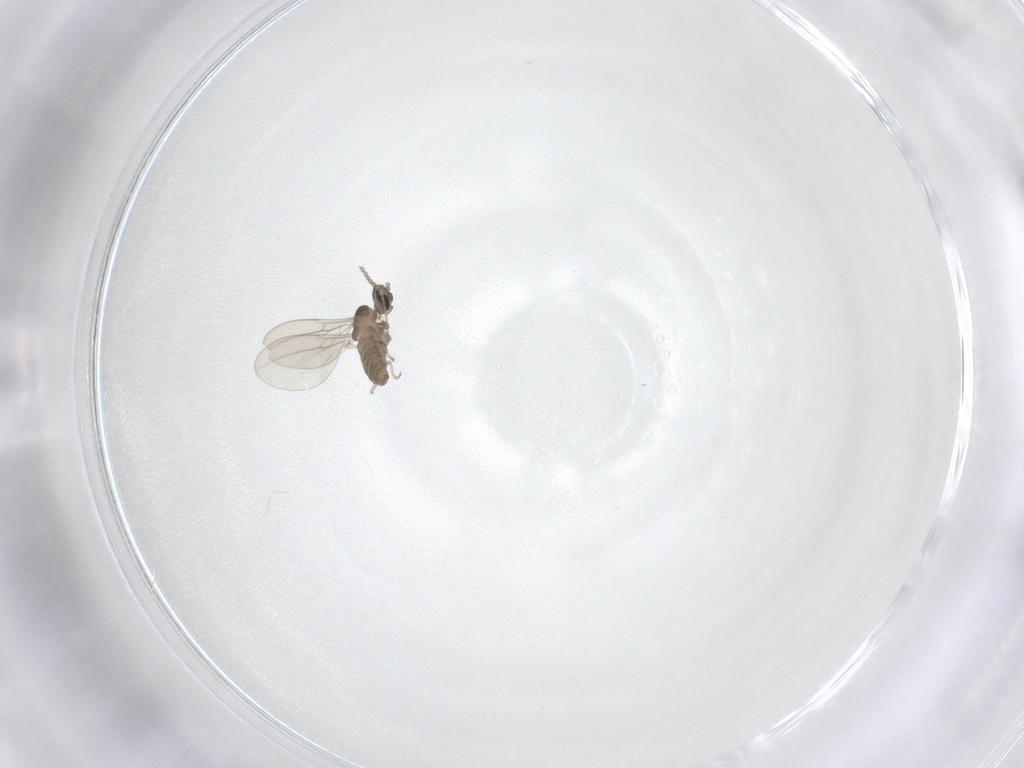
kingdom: Animalia
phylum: Arthropoda
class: Insecta
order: Diptera
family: Cecidomyiidae
